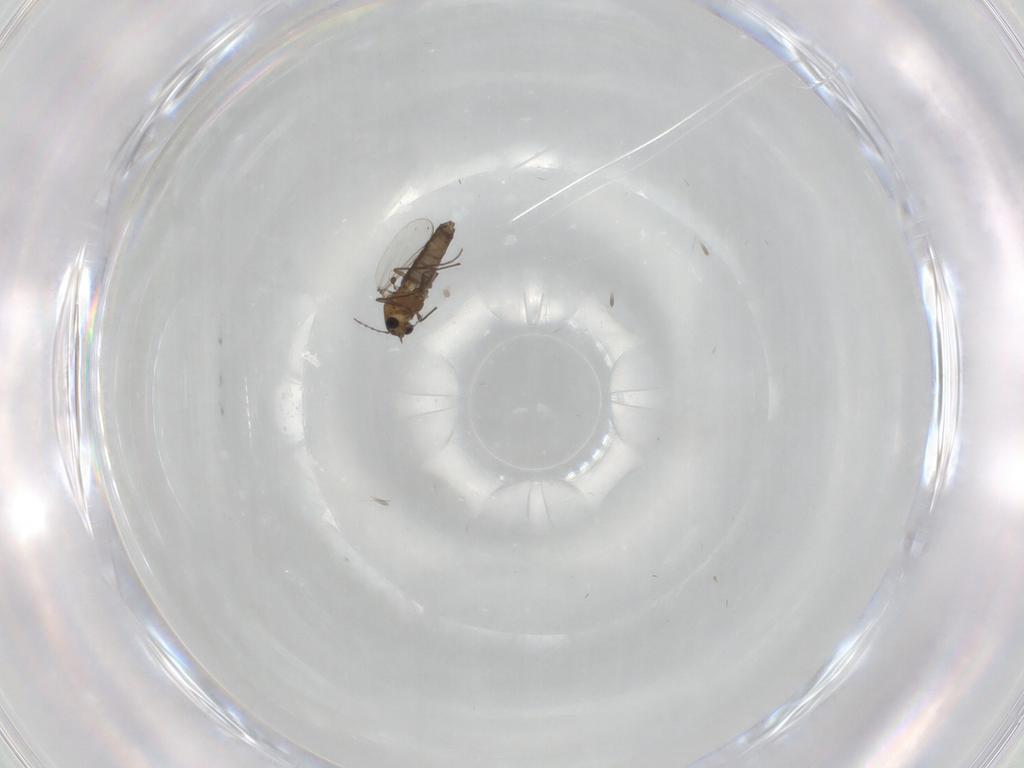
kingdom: Animalia
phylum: Arthropoda
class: Insecta
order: Diptera
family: Chironomidae
